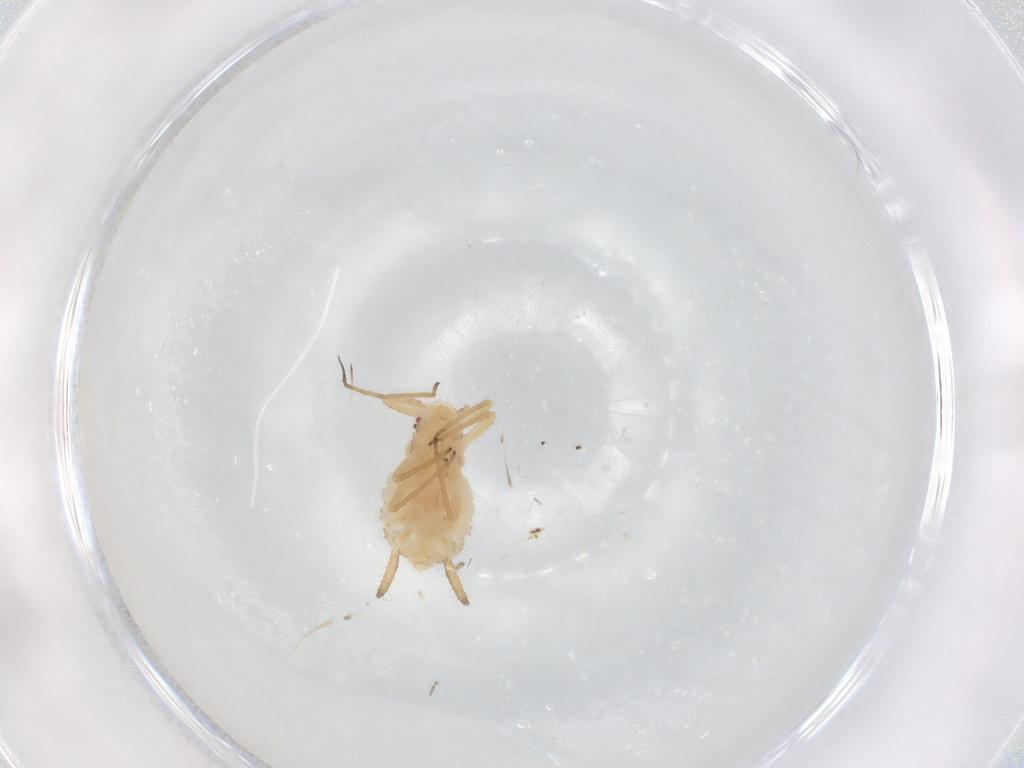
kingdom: Animalia
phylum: Arthropoda
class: Insecta
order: Hemiptera
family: Aphididae
